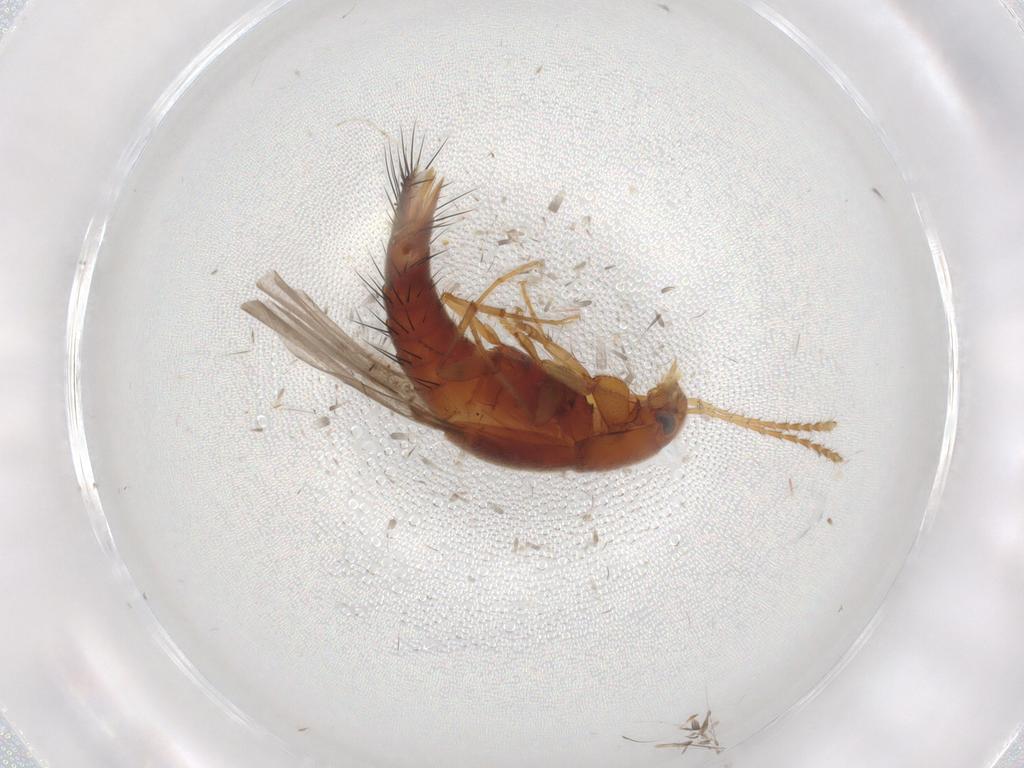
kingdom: Animalia
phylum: Arthropoda
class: Insecta
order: Coleoptera
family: Staphylinidae
